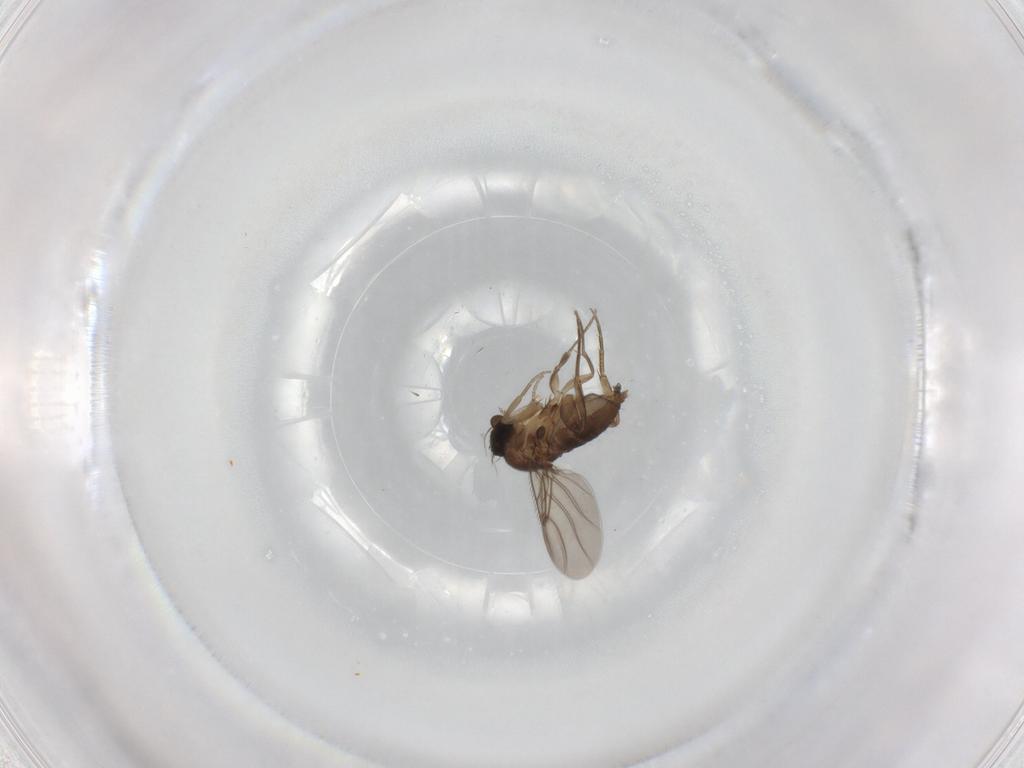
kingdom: Animalia
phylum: Arthropoda
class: Insecta
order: Diptera
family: Phoridae
